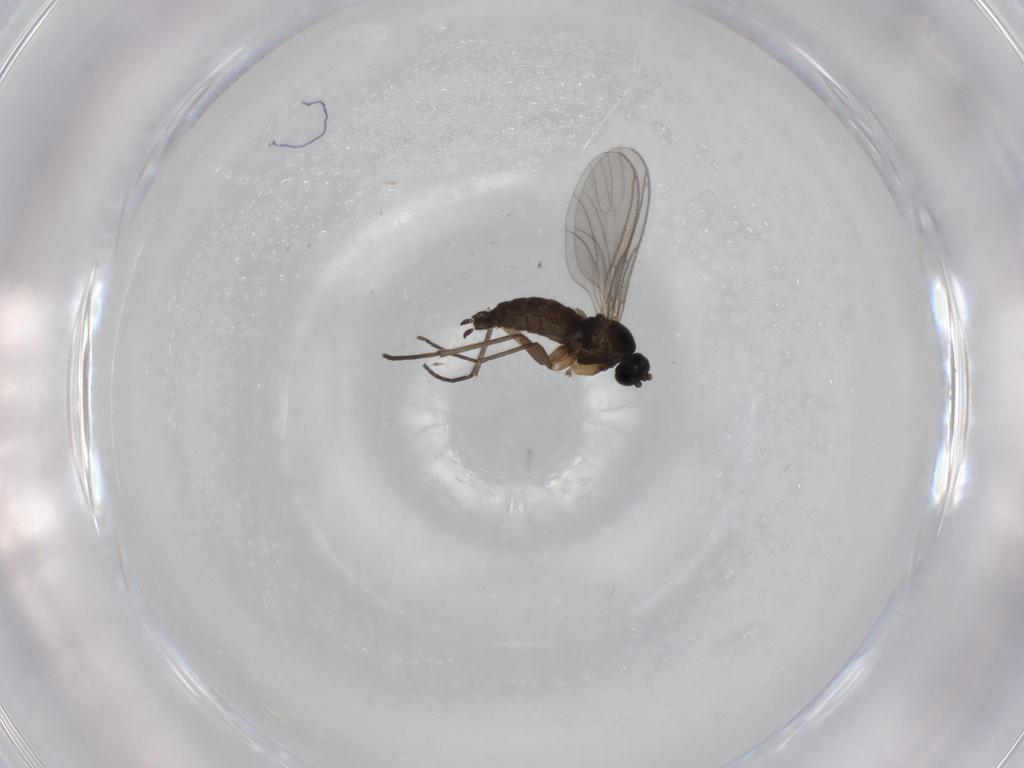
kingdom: Animalia
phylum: Arthropoda
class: Insecta
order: Diptera
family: Sciaridae
